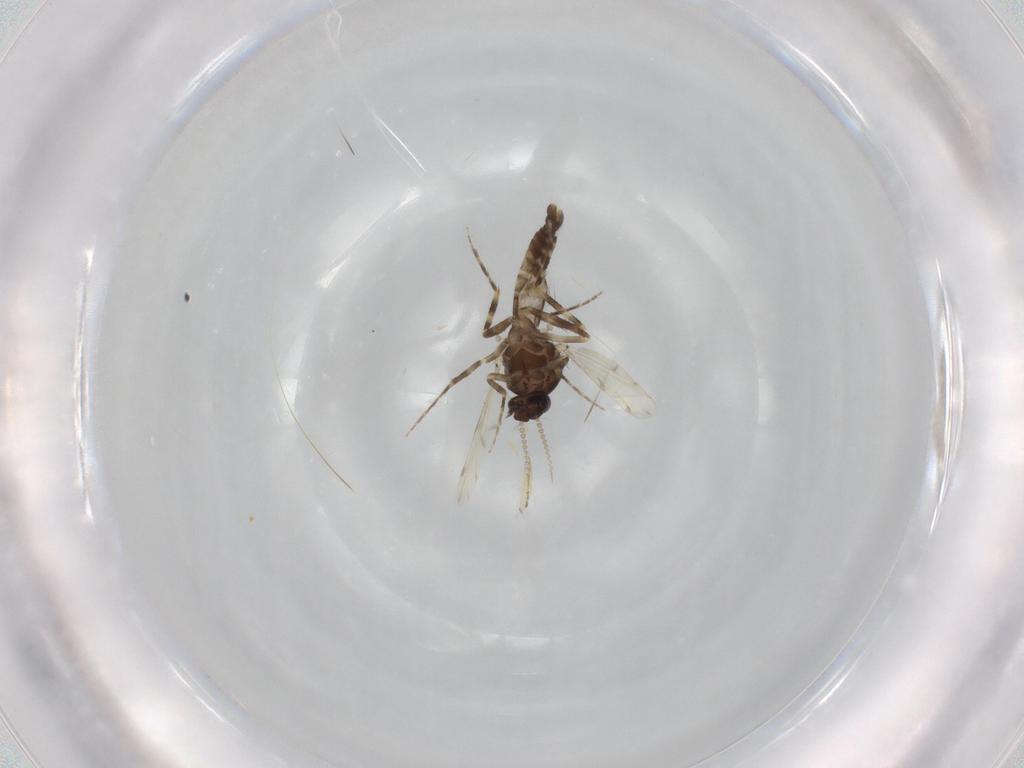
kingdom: Animalia
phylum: Arthropoda
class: Insecta
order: Diptera
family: Ceratopogonidae
